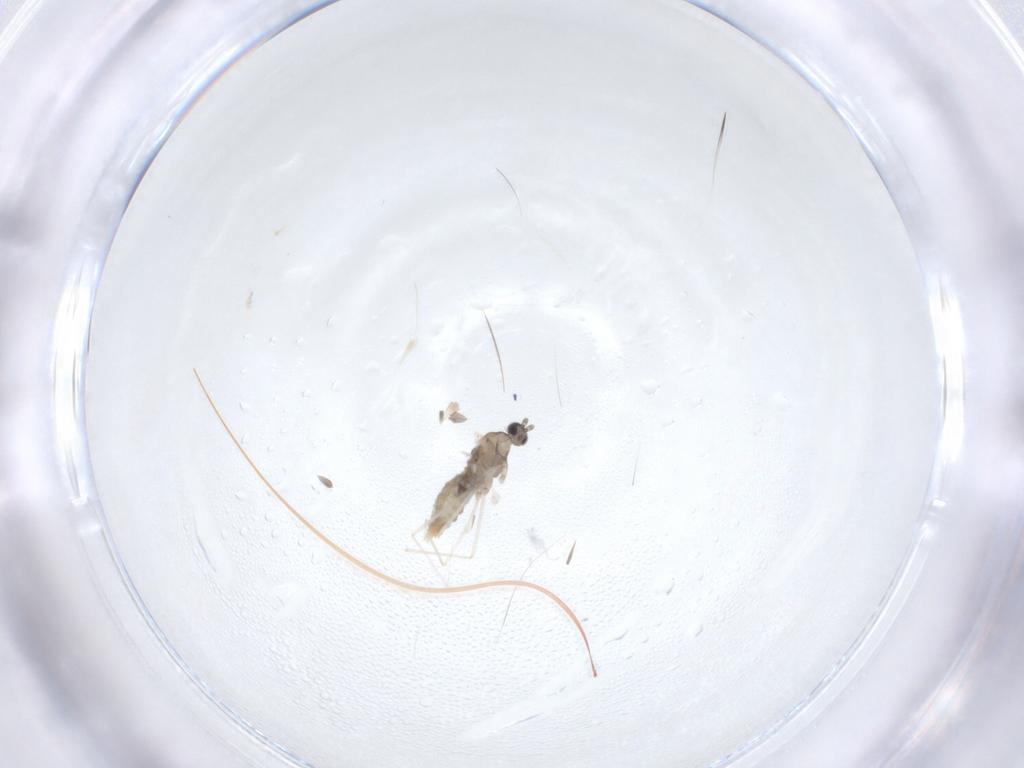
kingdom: Animalia
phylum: Arthropoda
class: Insecta
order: Diptera
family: Cecidomyiidae
